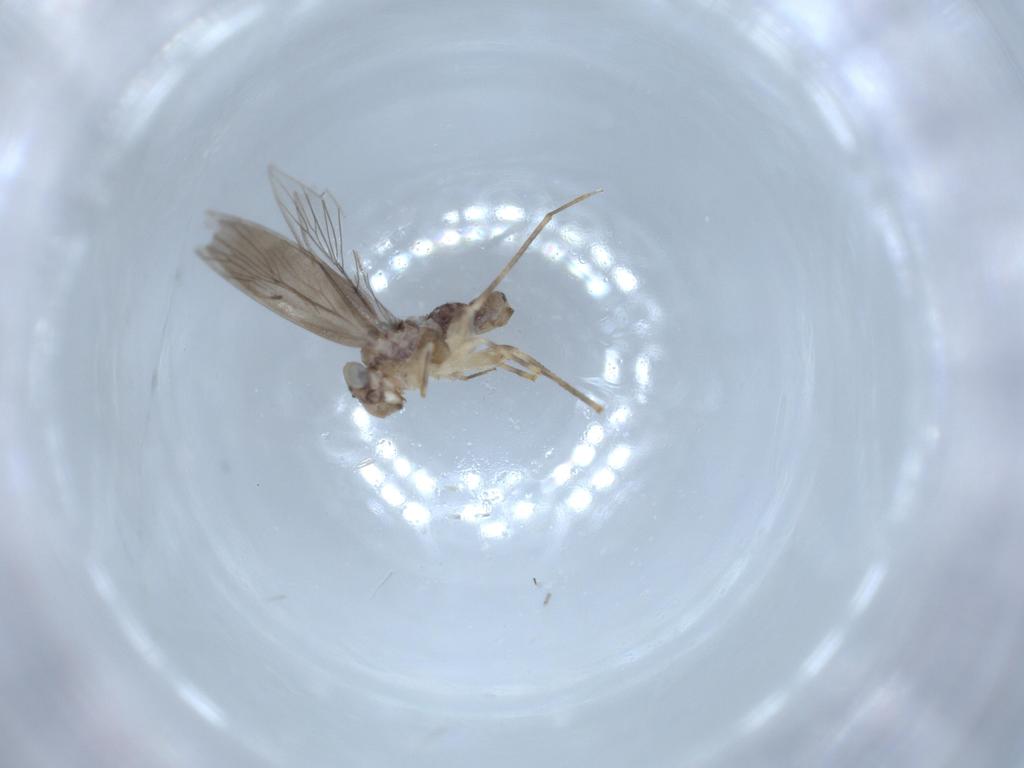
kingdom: Animalia
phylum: Arthropoda
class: Insecta
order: Psocodea
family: Lepidopsocidae
